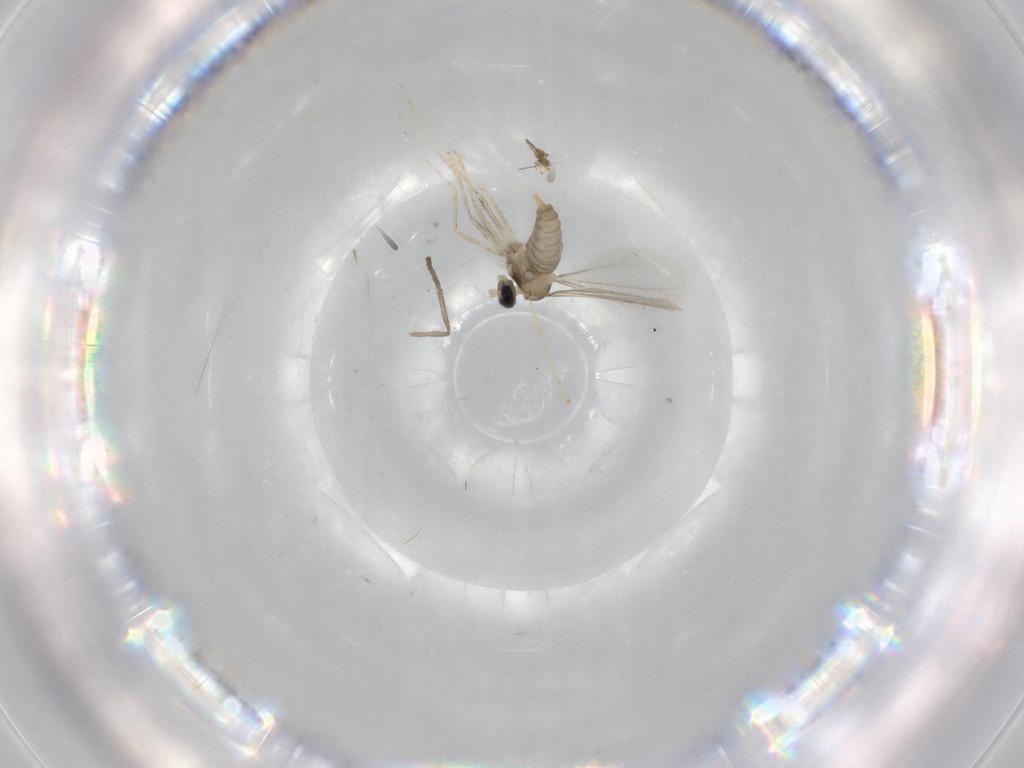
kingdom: Animalia
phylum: Arthropoda
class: Insecta
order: Diptera
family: Cecidomyiidae
